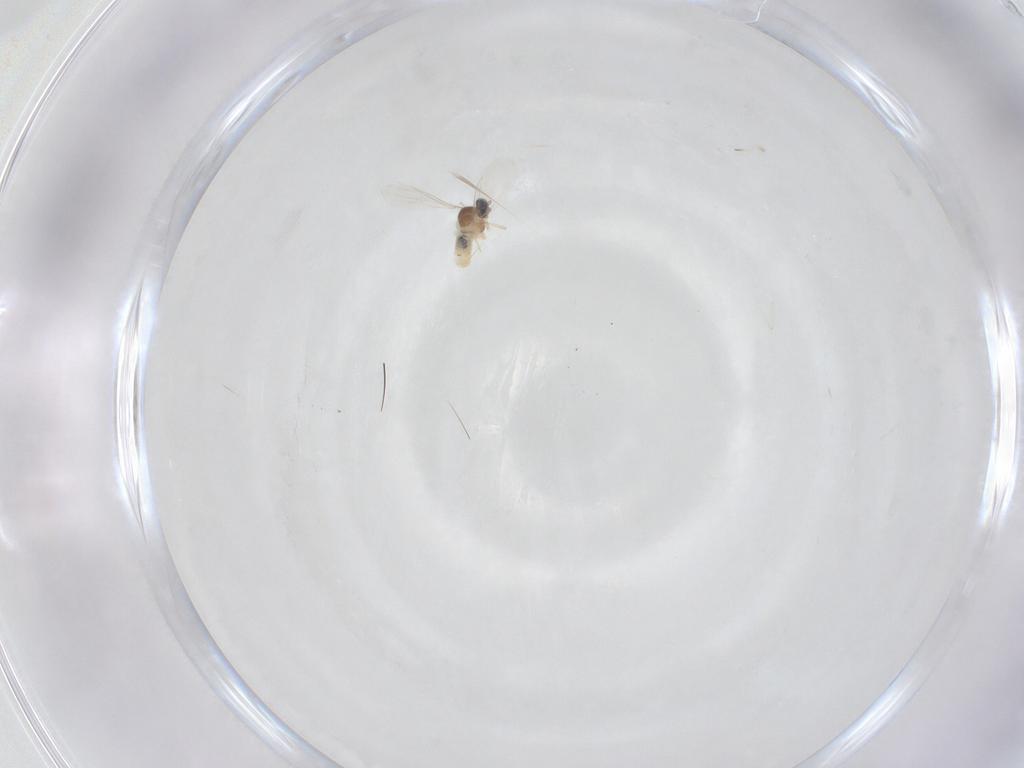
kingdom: Animalia
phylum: Arthropoda
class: Insecta
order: Diptera
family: Cecidomyiidae
